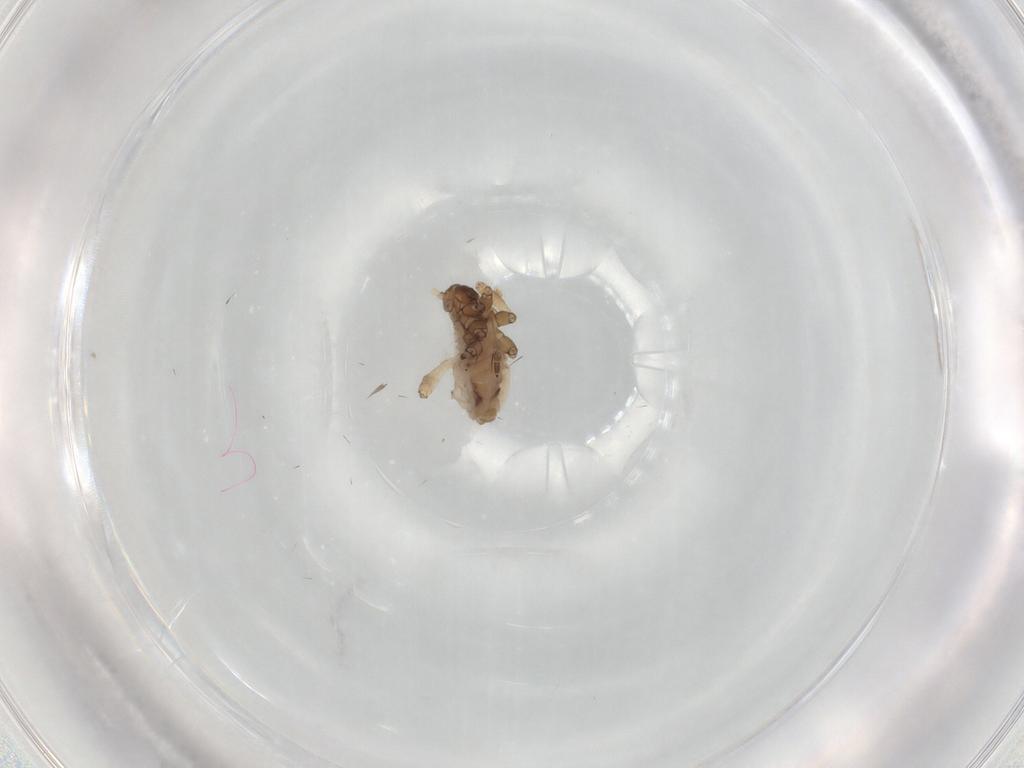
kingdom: Animalia
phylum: Arthropoda
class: Insecta
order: Hemiptera
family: Aphididae
